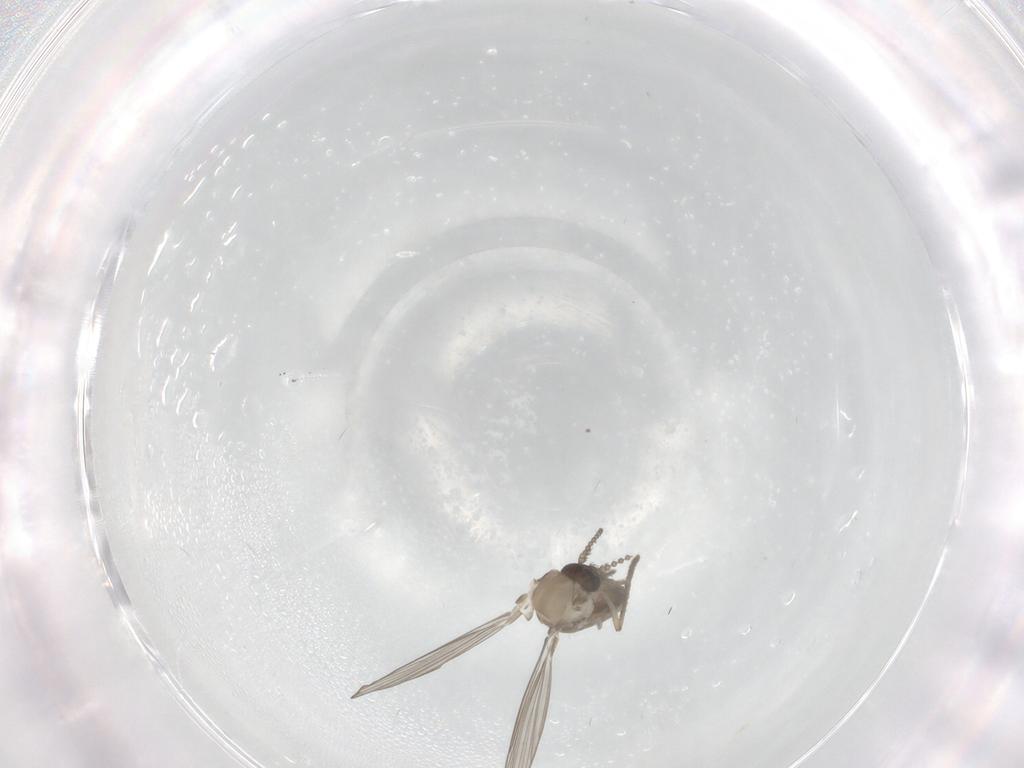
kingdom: Animalia
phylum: Arthropoda
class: Insecta
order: Diptera
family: Psychodidae
